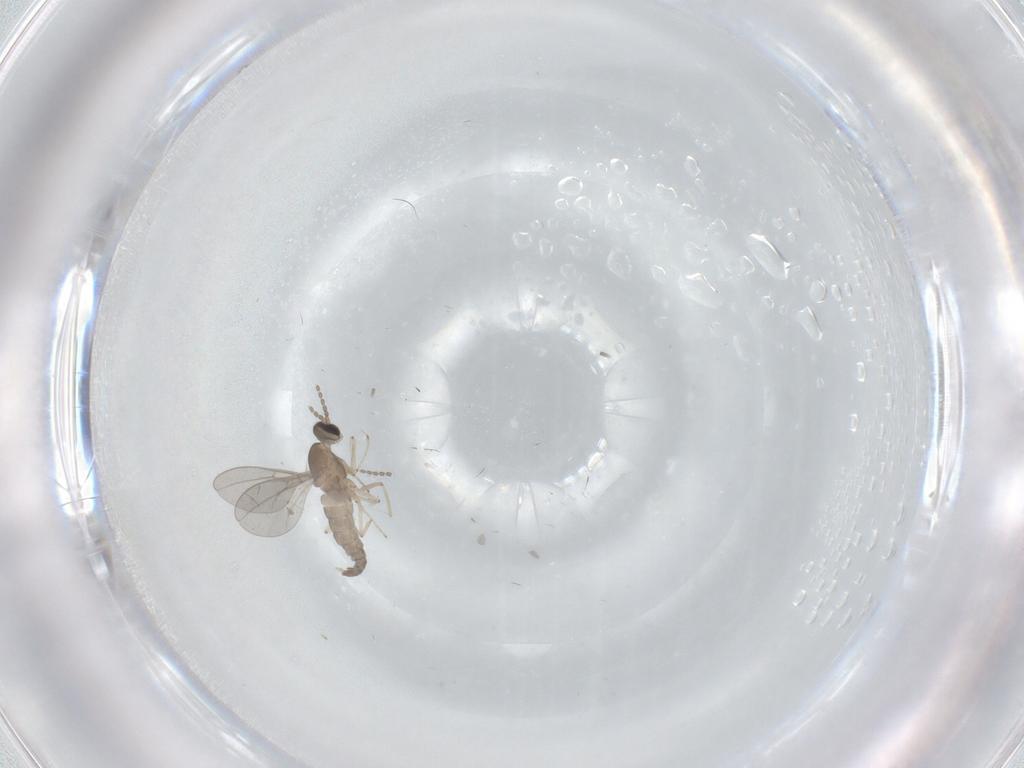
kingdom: Animalia
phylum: Arthropoda
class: Insecta
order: Diptera
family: Cecidomyiidae
